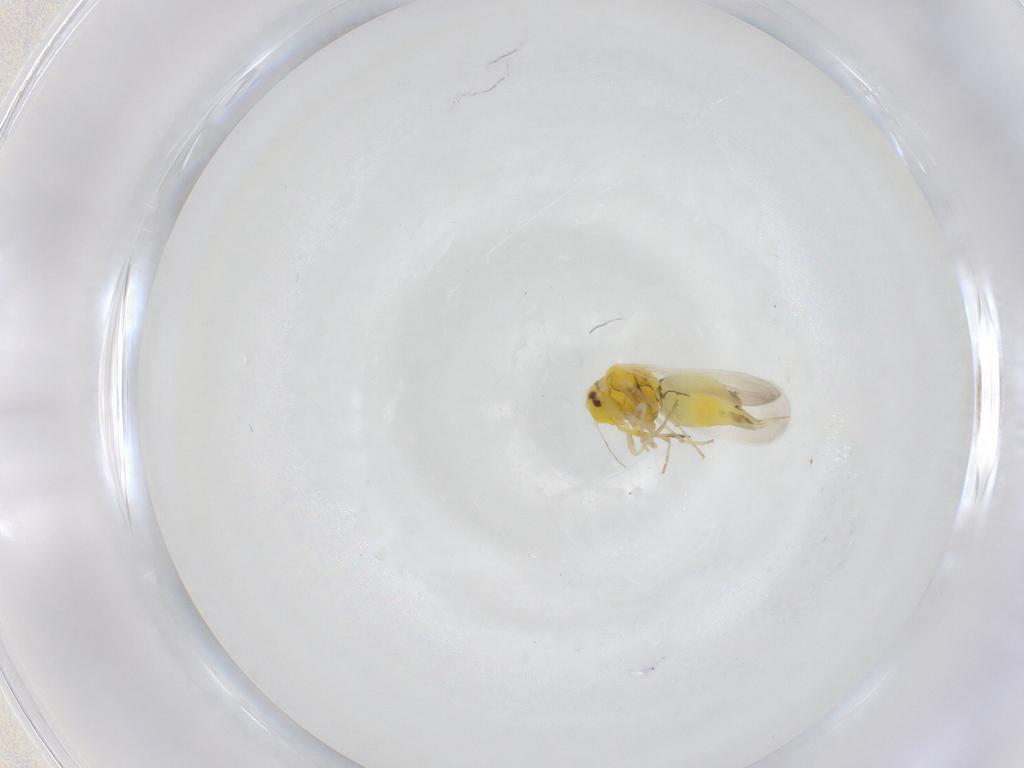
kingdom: Animalia
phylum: Arthropoda
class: Insecta
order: Hemiptera
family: Aleyrodidae
